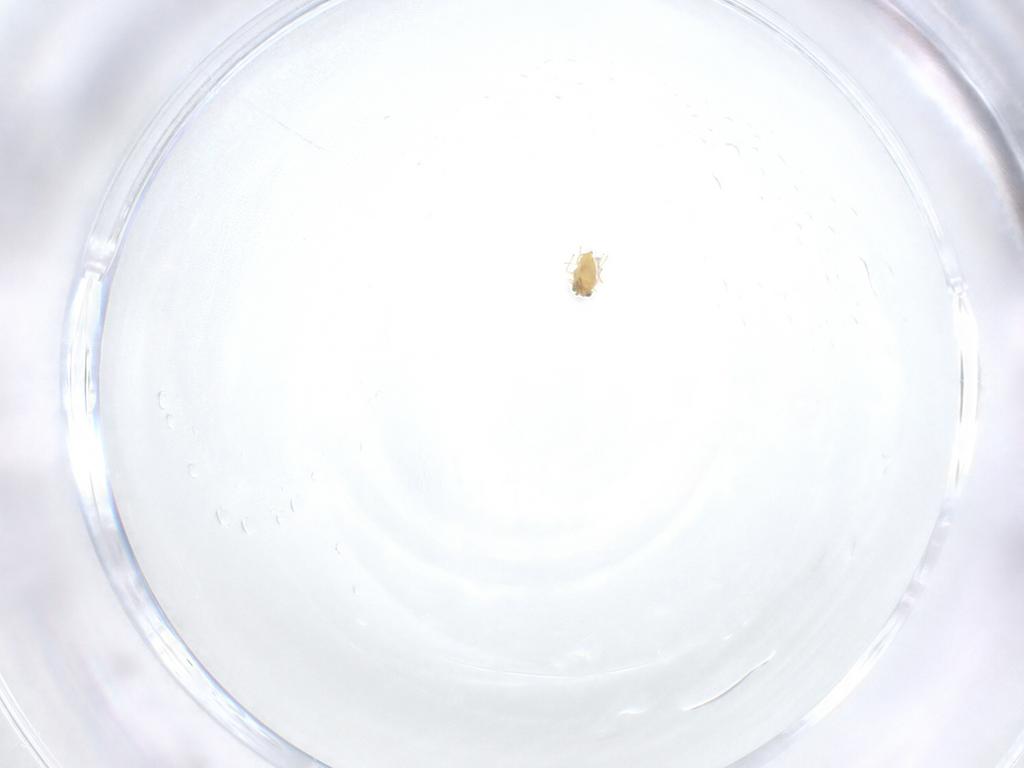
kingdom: Animalia
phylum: Arthropoda
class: Insecta
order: Hymenoptera
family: Aphelinidae
